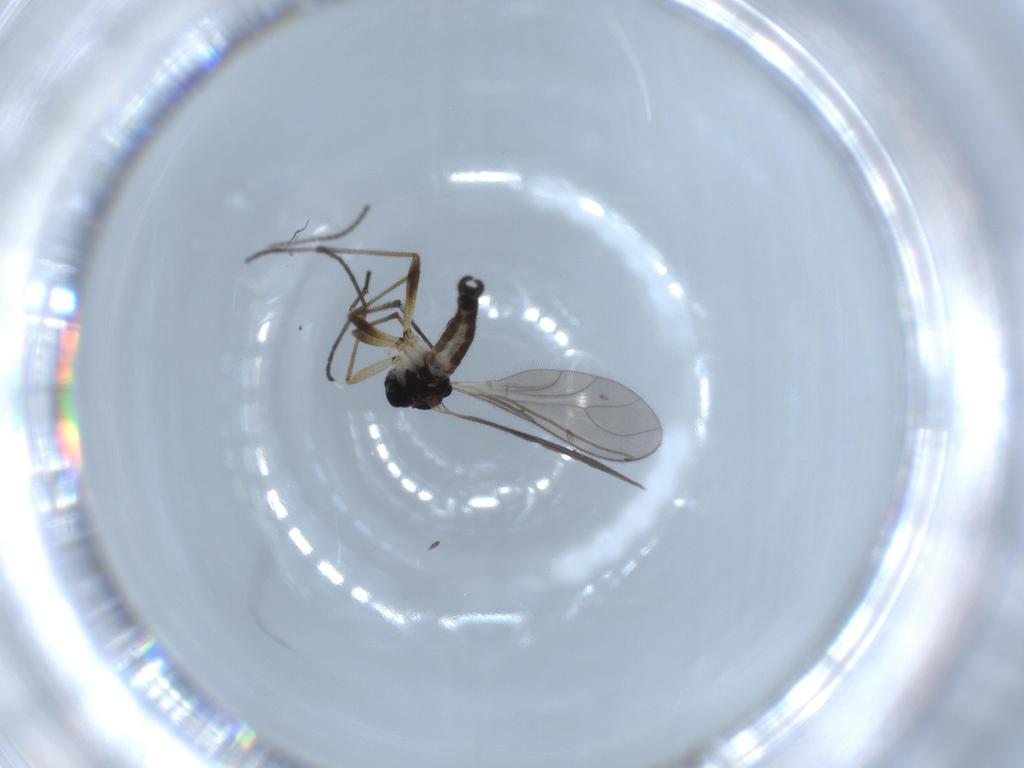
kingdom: Animalia
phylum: Arthropoda
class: Insecta
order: Diptera
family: Sciaridae
